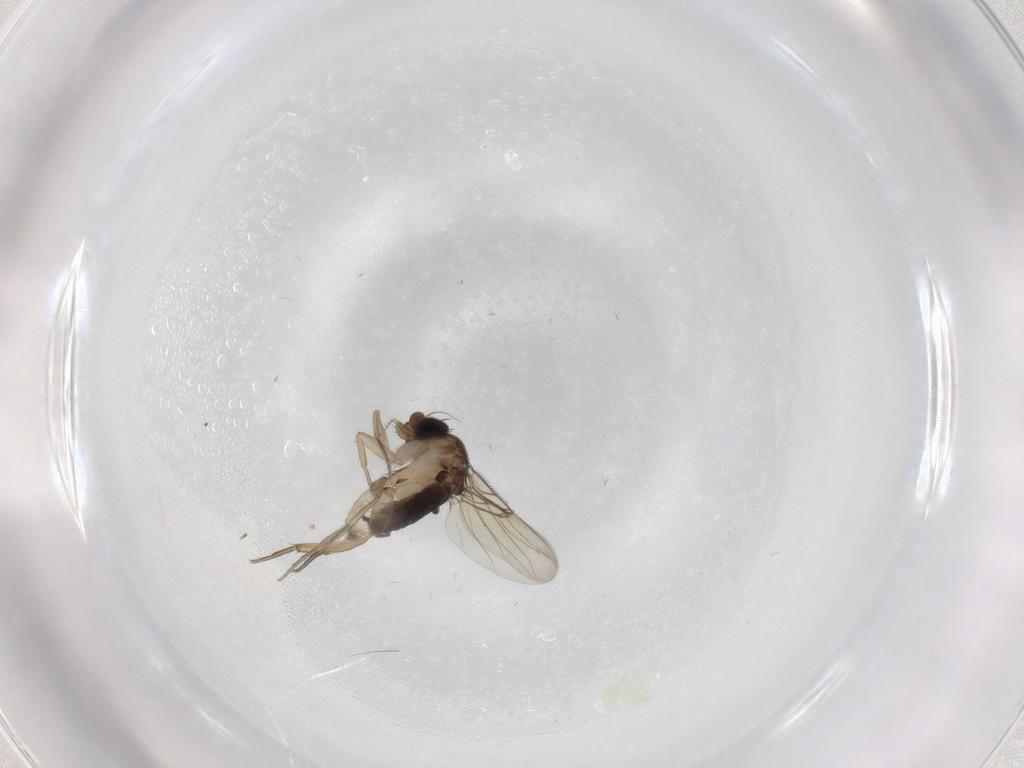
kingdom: Animalia
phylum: Arthropoda
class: Insecta
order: Diptera
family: Phoridae
